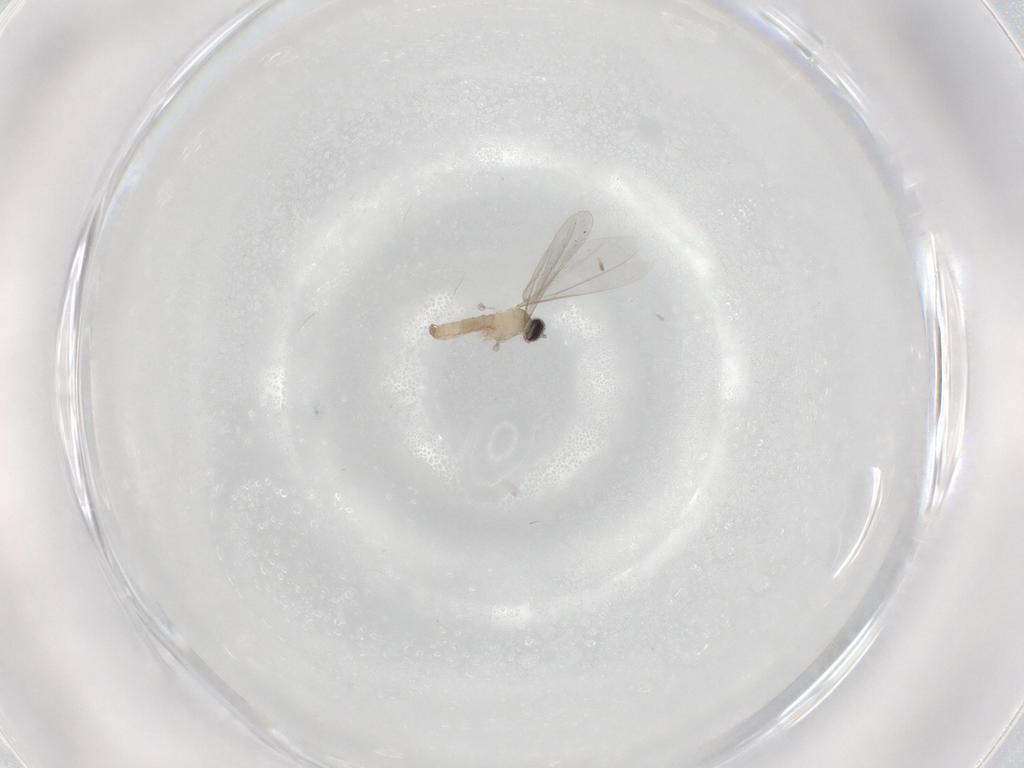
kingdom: Animalia
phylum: Arthropoda
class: Insecta
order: Diptera
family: Cecidomyiidae
